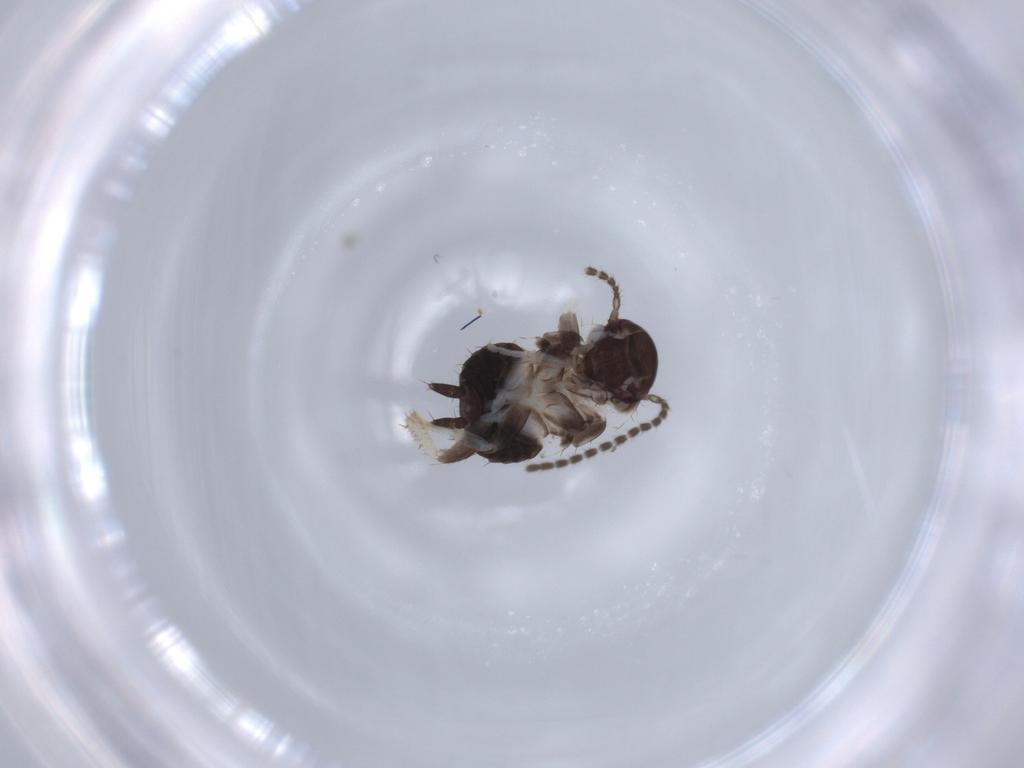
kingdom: Animalia
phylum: Arthropoda
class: Insecta
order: Blattodea
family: Ectobiidae
